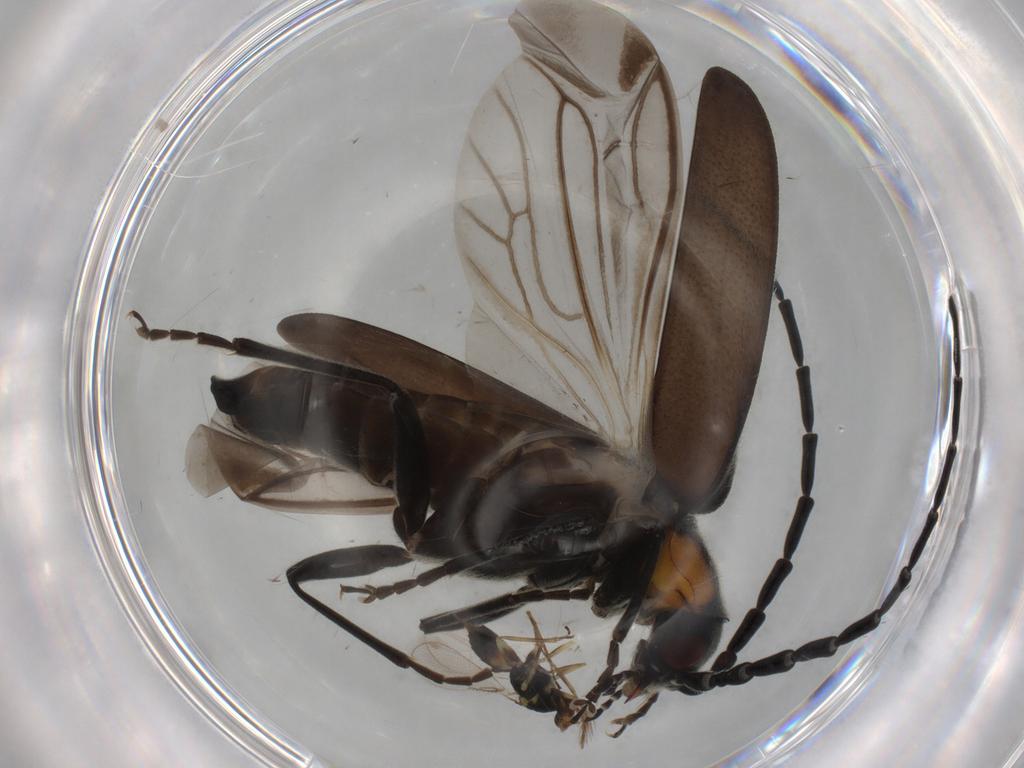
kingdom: Animalia
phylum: Arthropoda
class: Insecta
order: Coleoptera
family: Cantharidae
